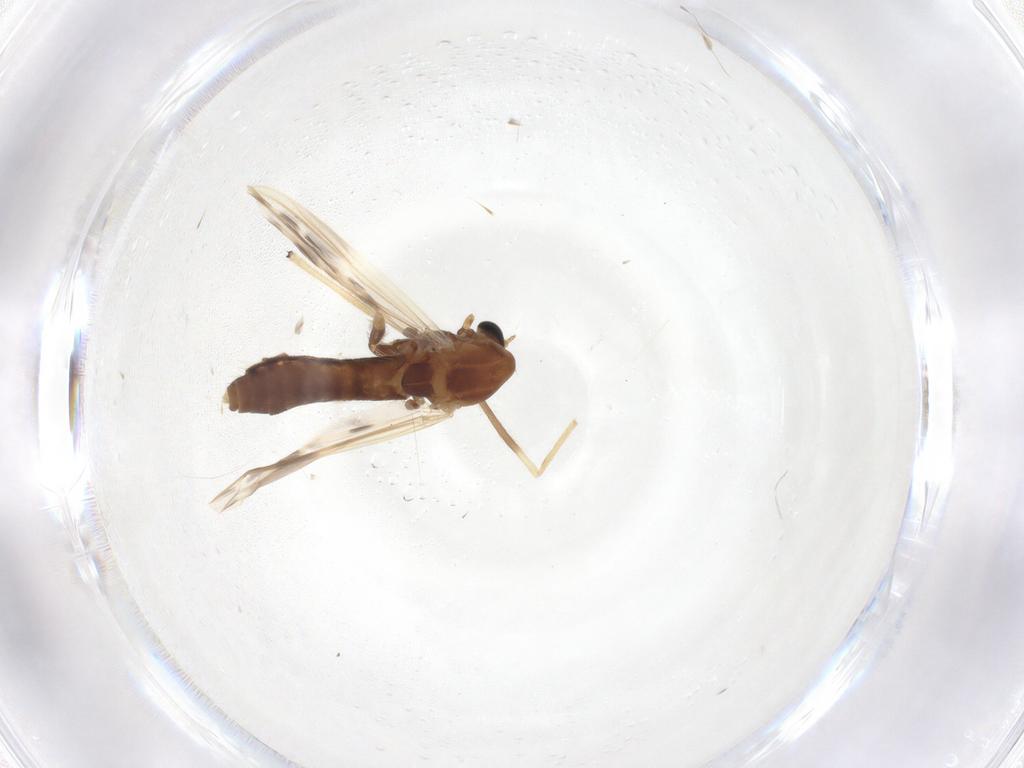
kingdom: Animalia
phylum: Arthropoda
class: Insecta
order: Diptera
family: Chironomidae
